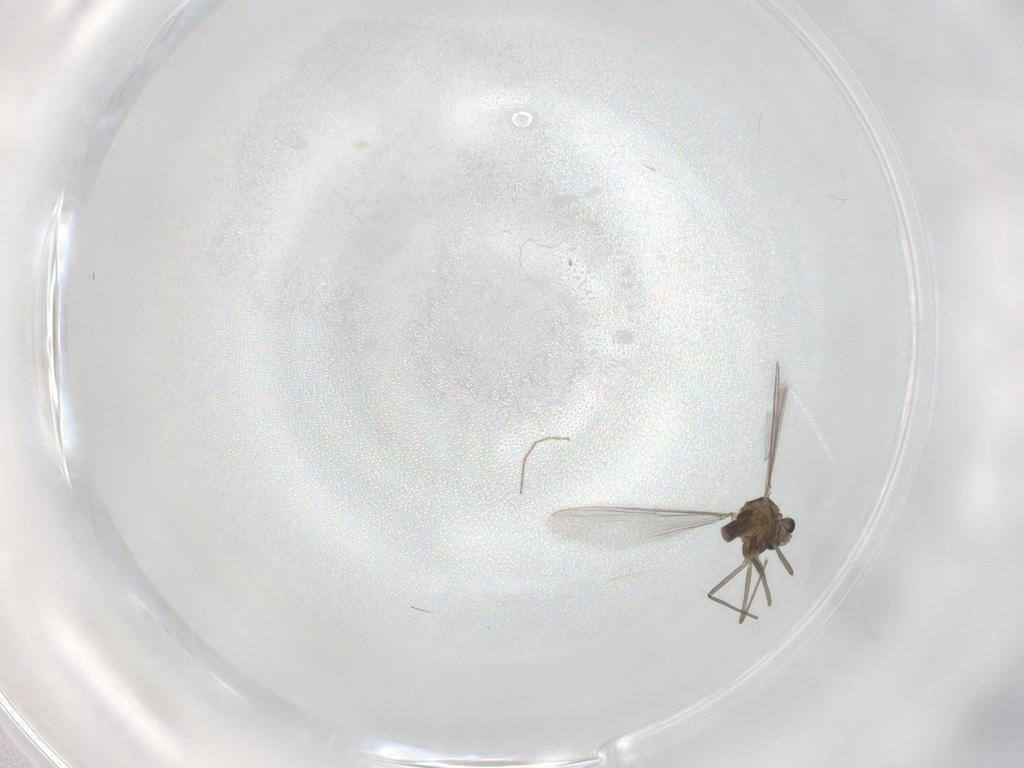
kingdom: Animalia
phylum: Arthropoda
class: Insecta
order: Diptera
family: Chironomidae
